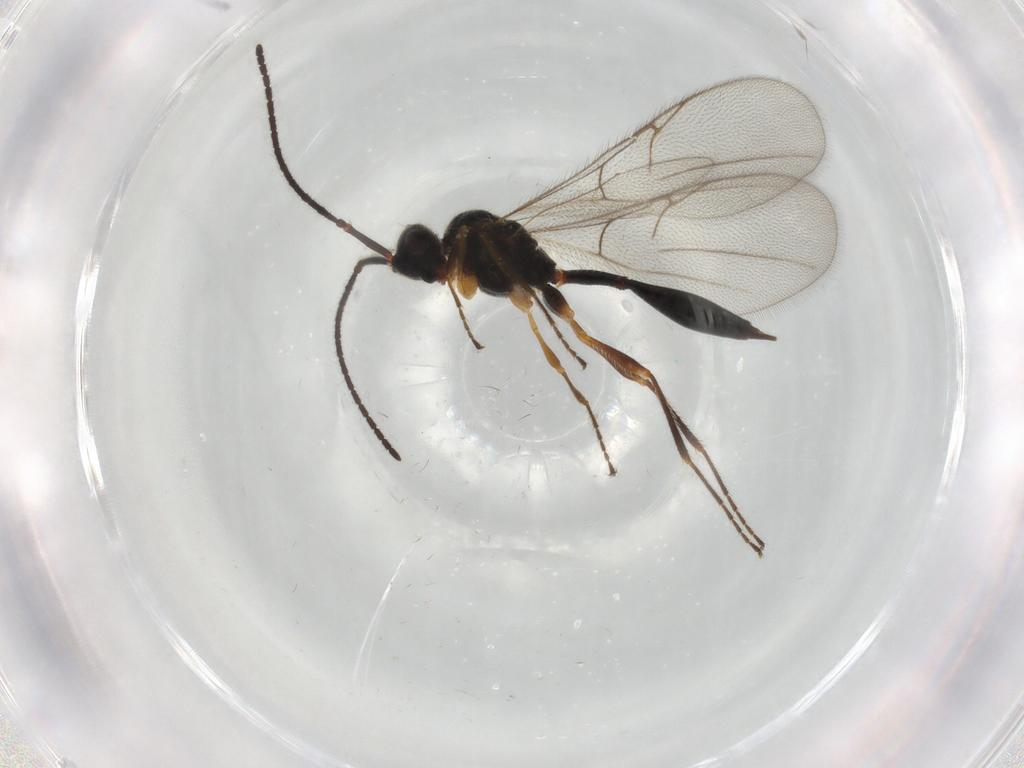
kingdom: Animalia
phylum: Arthropoda
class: Insecta
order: Hymenoptera
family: Diapriidae
